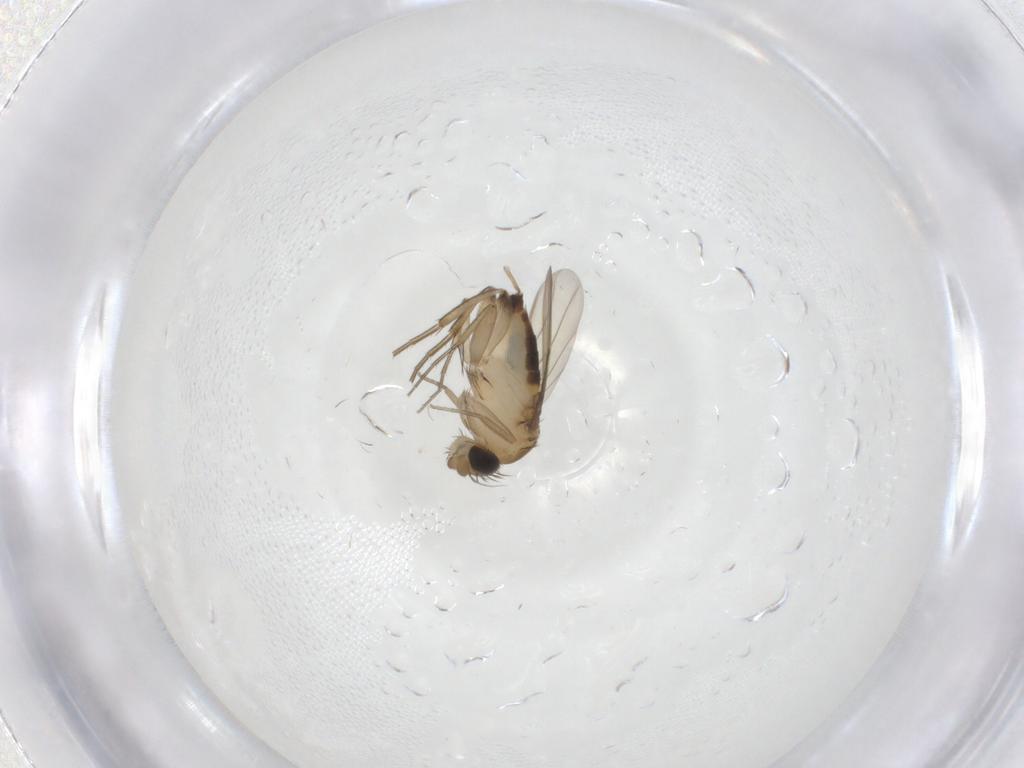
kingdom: Animalia
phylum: Arthropoda
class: Insecta
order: Diptera
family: Phoridae
